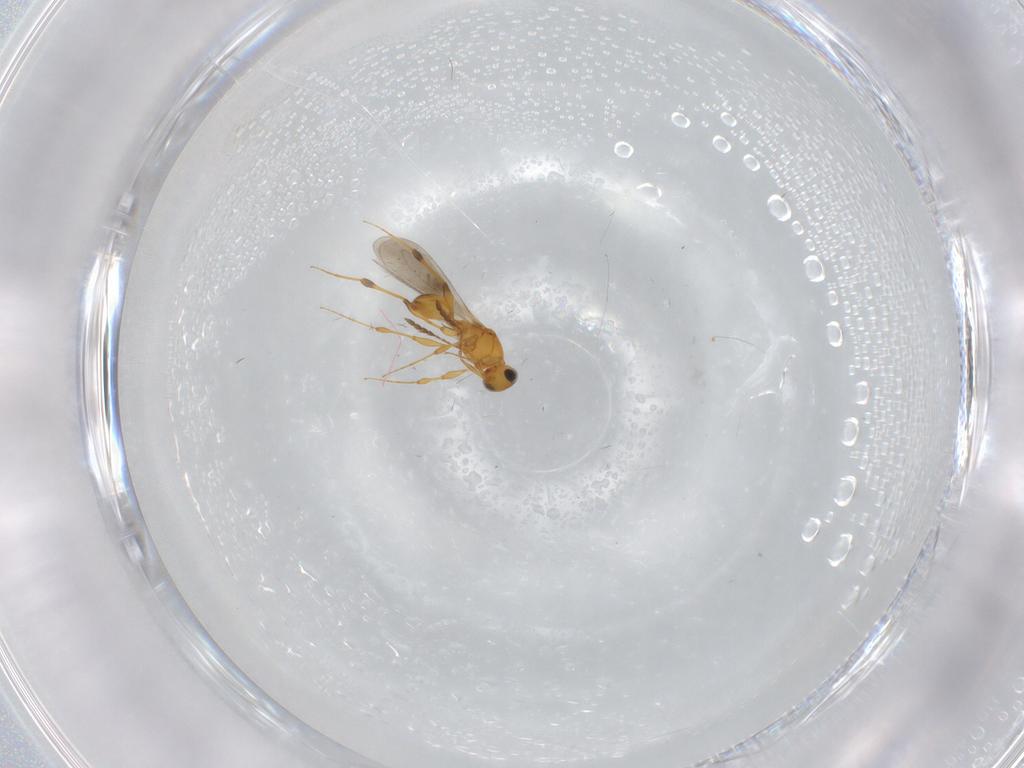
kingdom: Animalia
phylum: Arthropoda
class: Insecta
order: Hymenoptera
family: Platygastridae
